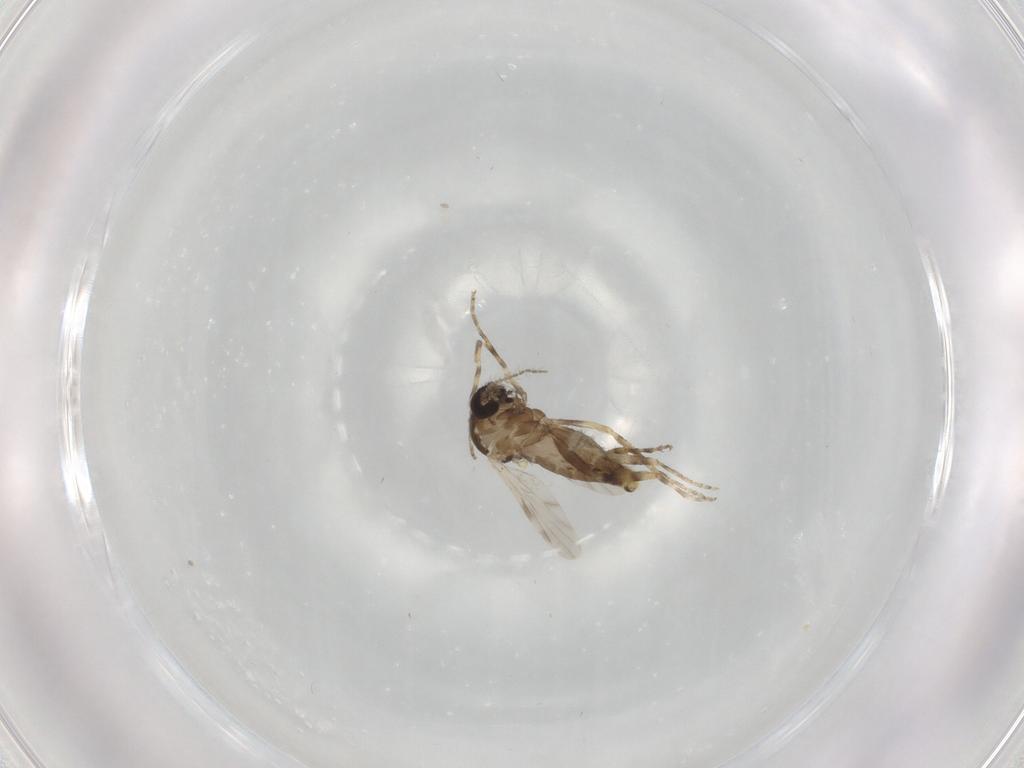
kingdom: Animalia
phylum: Arthropoda
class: Insecta
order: Diptera
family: Ceratopogonidae
